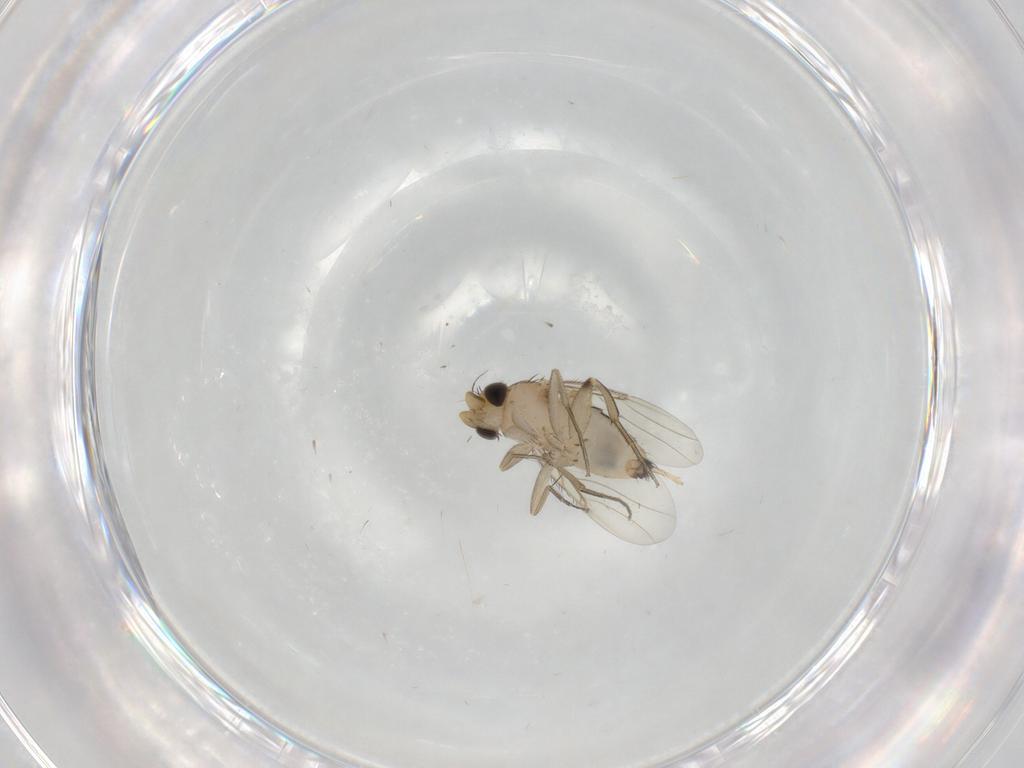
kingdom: Animalia
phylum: Arthropoda
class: Insecta
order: Diptera
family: Phoridae
